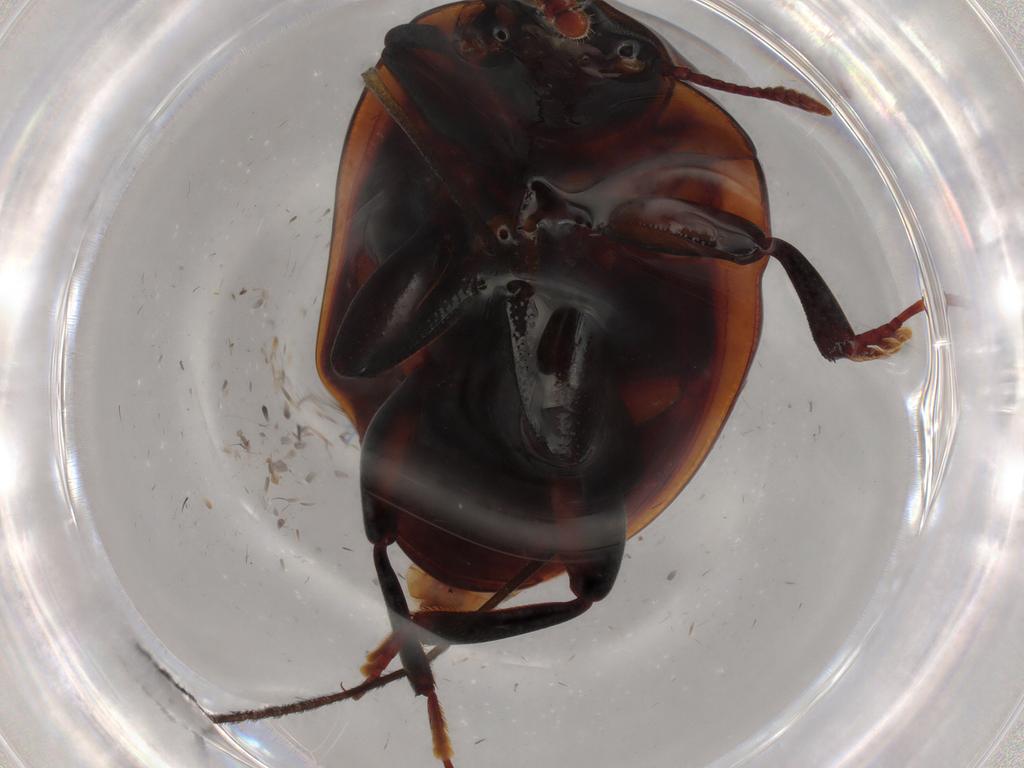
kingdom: Animalia
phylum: Arthropoda
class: Insecta
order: Coleoptera
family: Zopheridae
